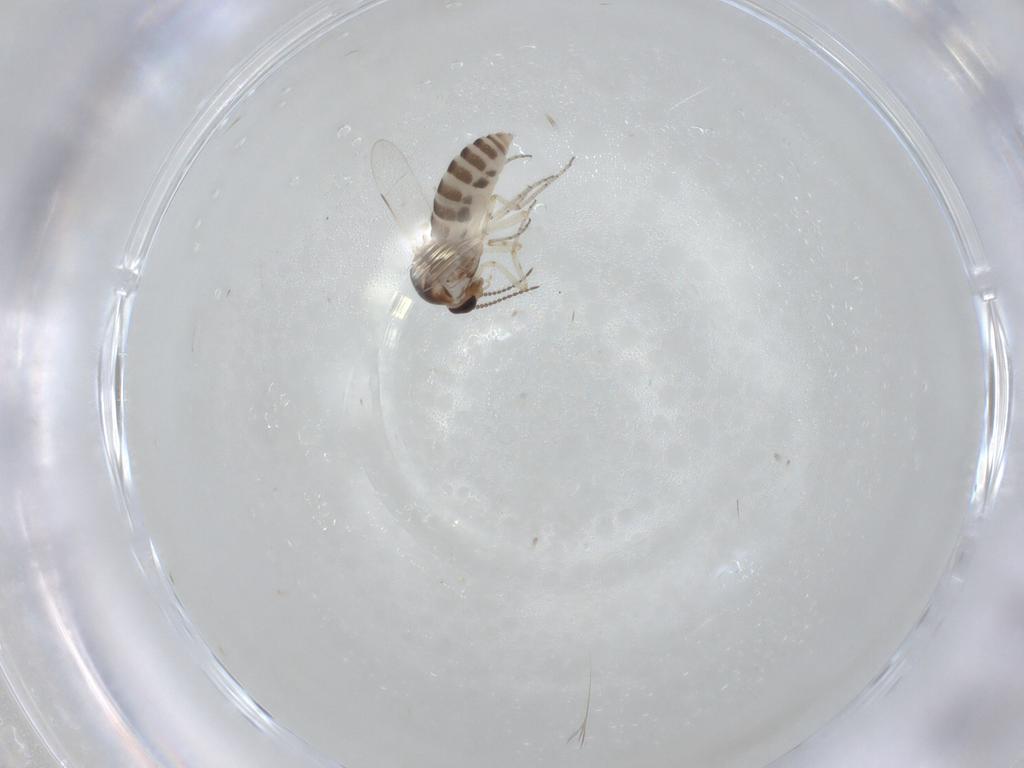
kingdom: Animalia
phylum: Arthropoda
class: Insecta
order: Diptera
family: Ceratopogonidae
